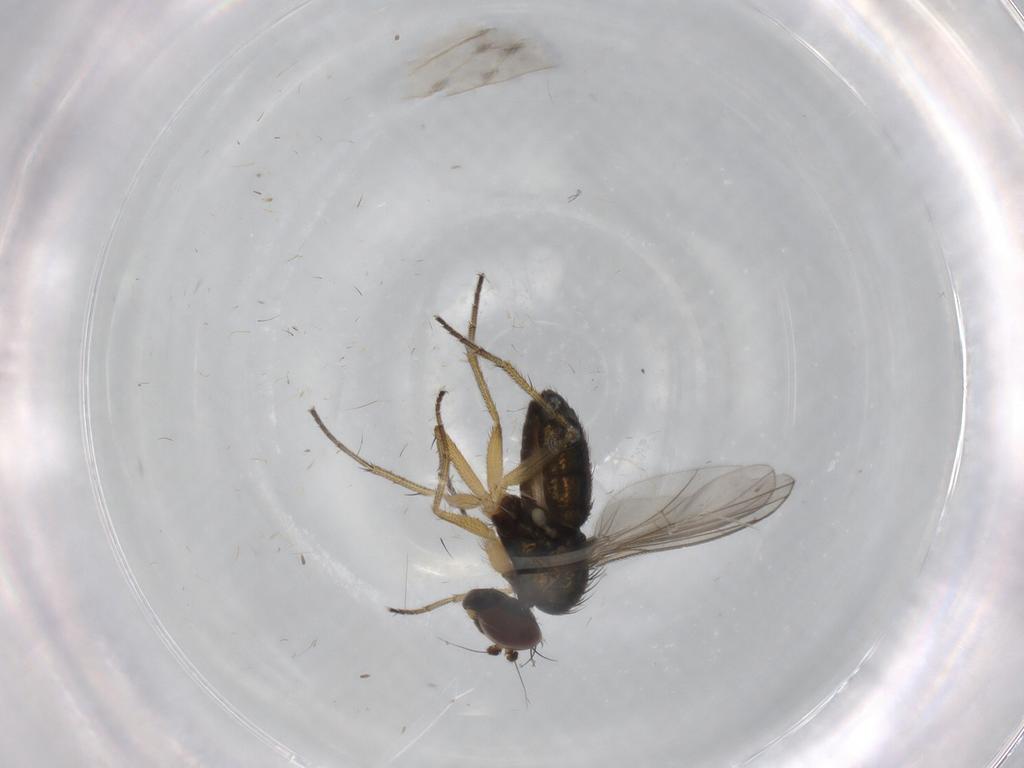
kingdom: Animalia
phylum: Arthropoda
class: Insecta
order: Diptera
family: Dolichopodidae
